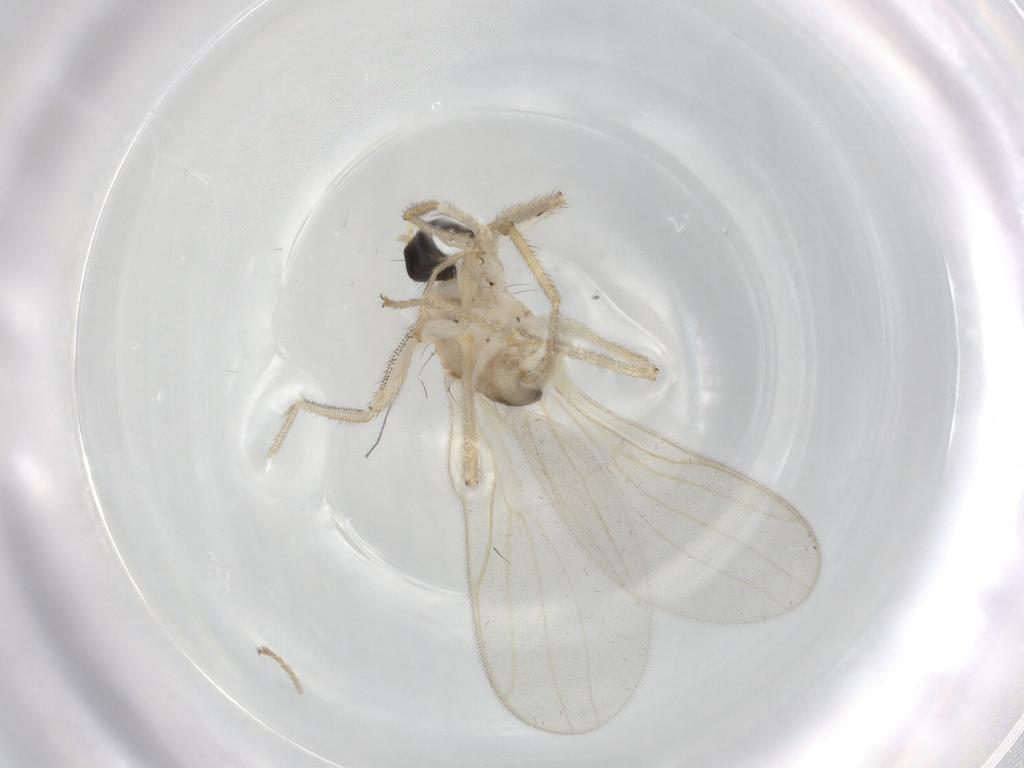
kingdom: Animalia
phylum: Arthropoda
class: Insecta
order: Diptera
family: Hybotidae
